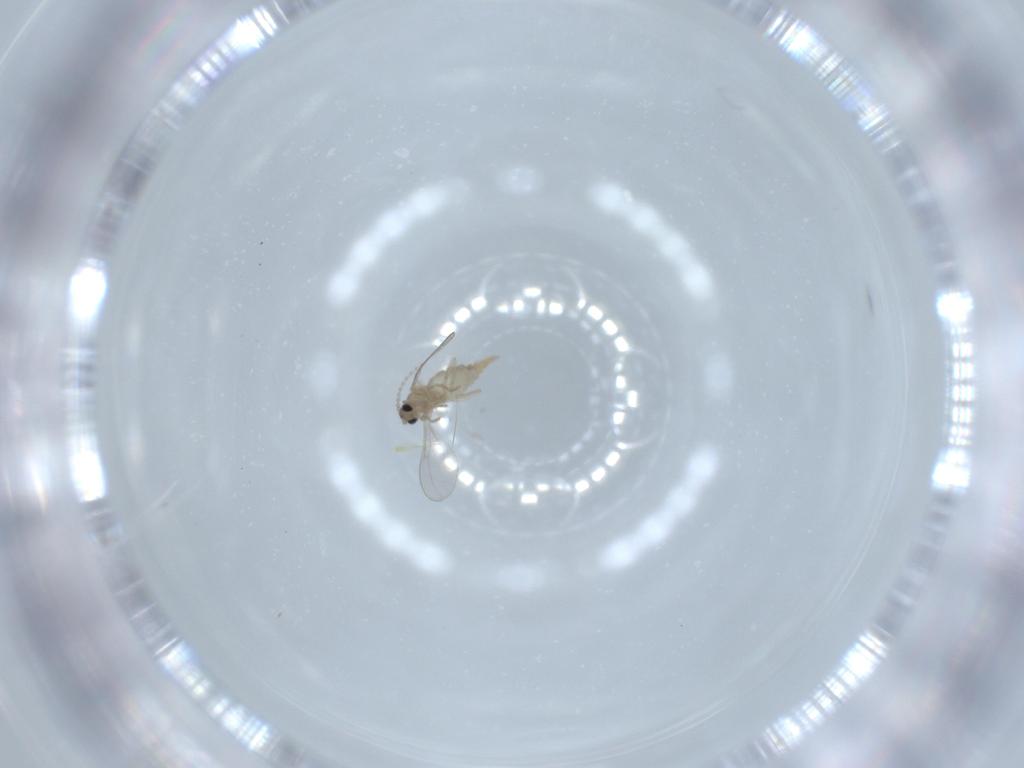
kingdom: Animalia
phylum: Arthropoda
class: Insecta
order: Diptera
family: Cecidomyiidae
